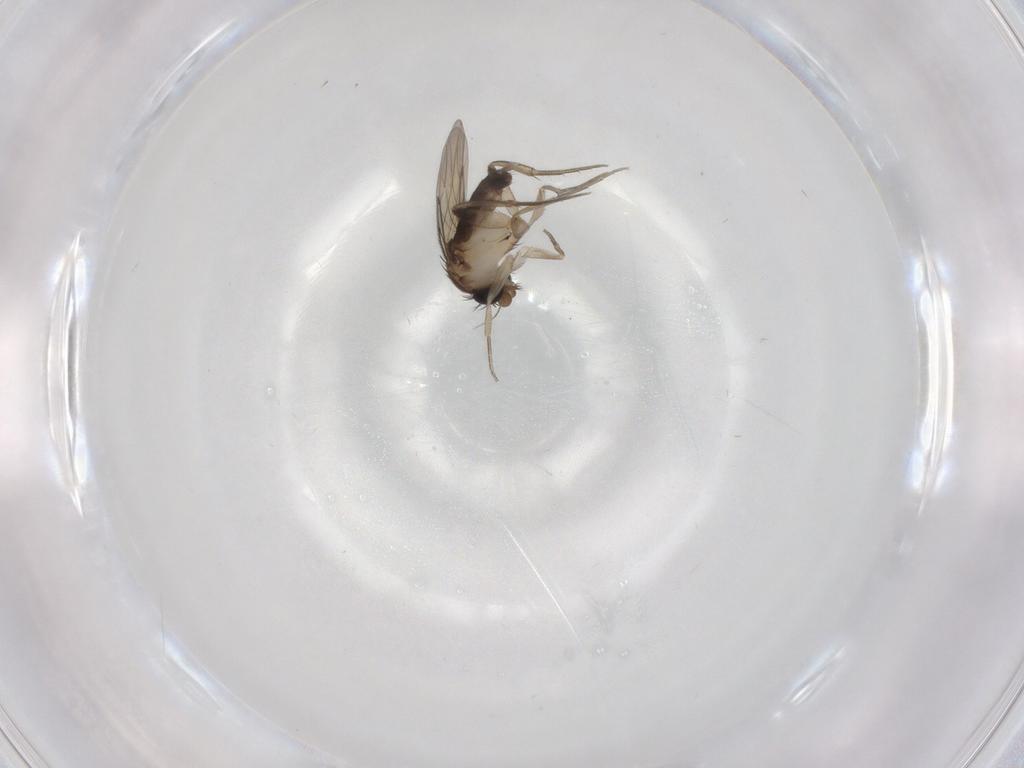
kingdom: Animalia
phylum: Arthropoda
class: Insecta
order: Diptera
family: Phoridae
